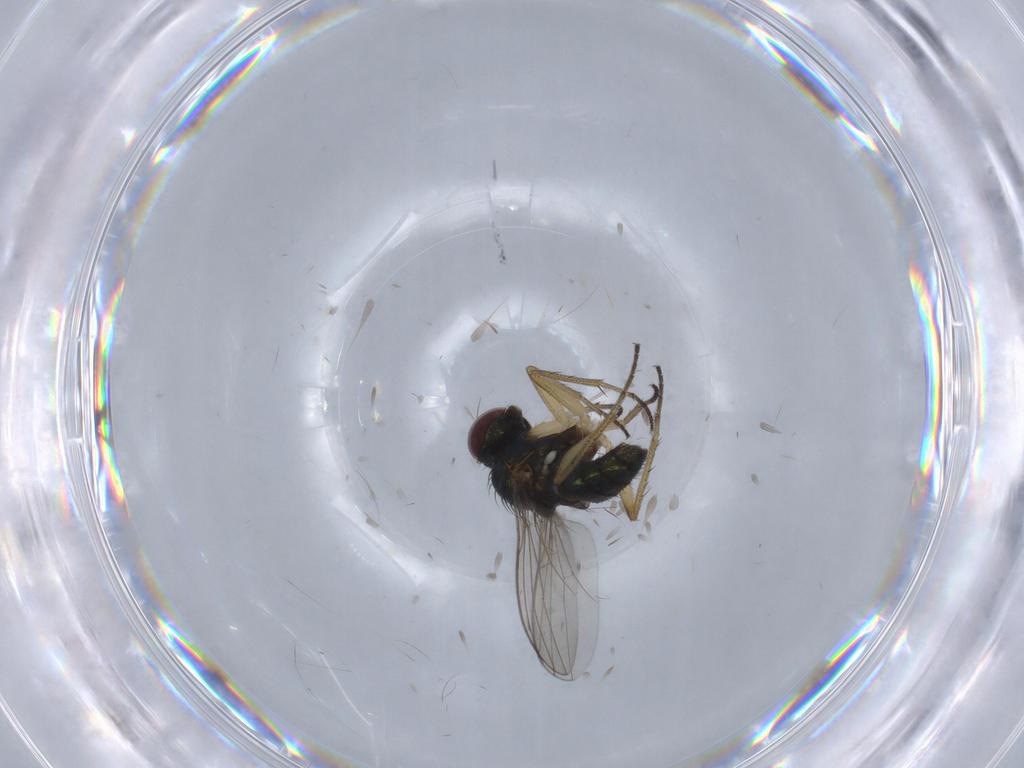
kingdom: Animalia
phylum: Arthropoda
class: Insecta
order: Diptera
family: Dolichopodidae
